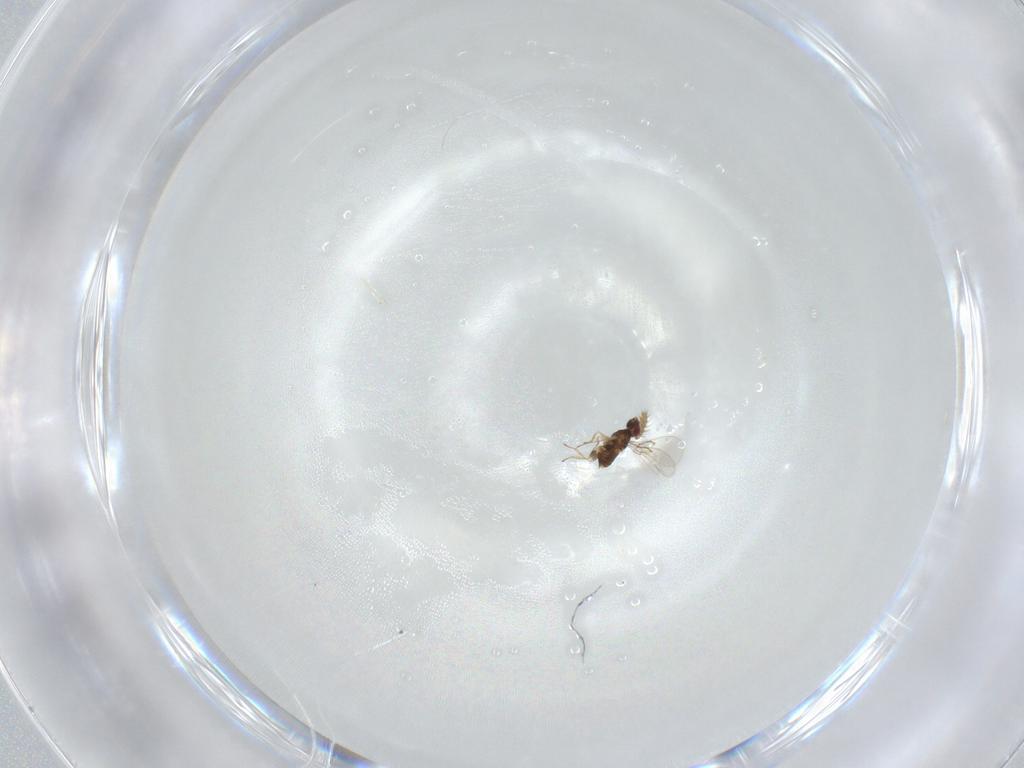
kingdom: Animalia
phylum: Arthropoda
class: Insecta
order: Hymenoptera
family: Trichogrammatidae
